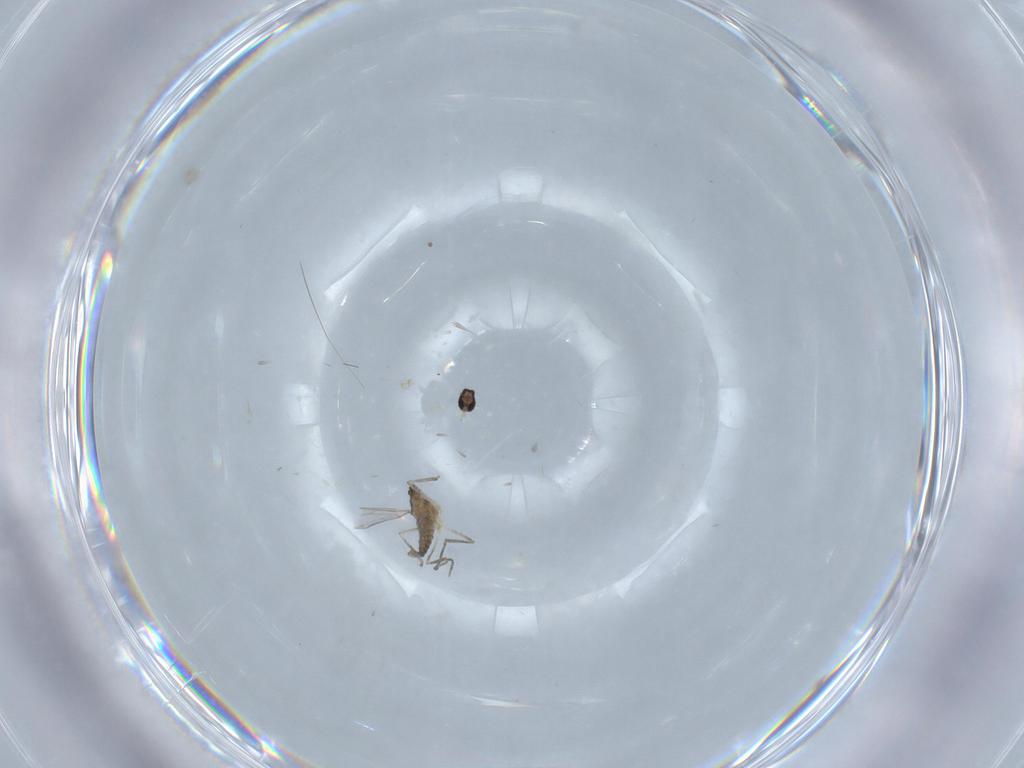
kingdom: Animalia
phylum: Arthropoda
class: Insecta
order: Diptera
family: Cecidomyiidae
